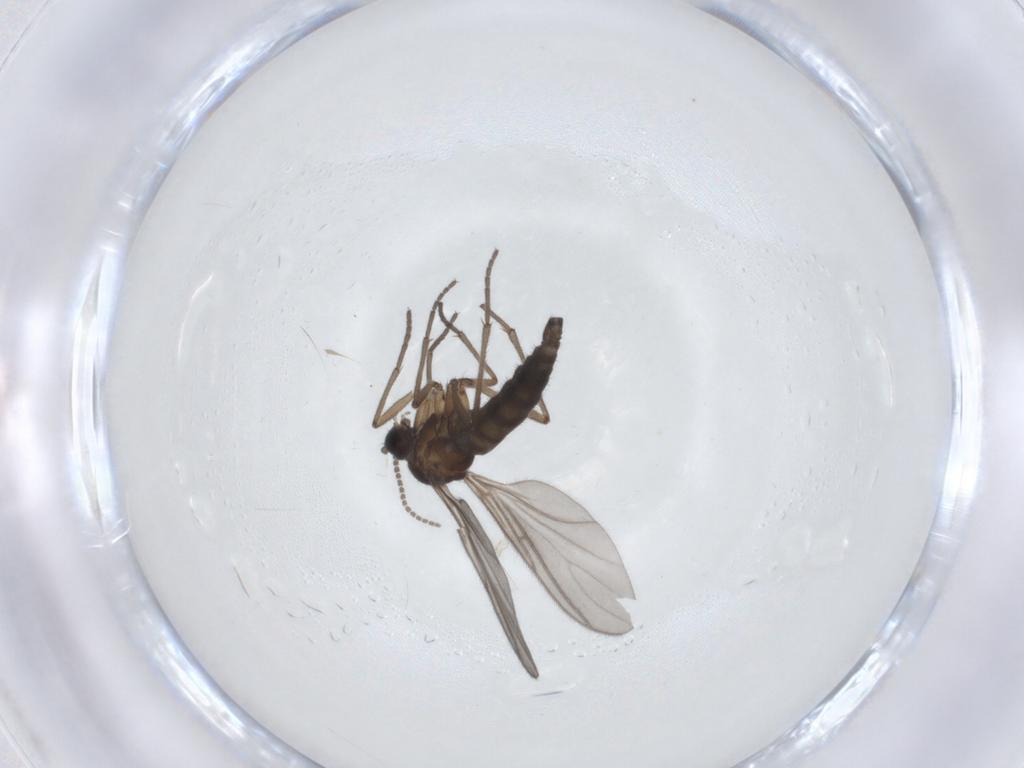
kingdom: Animalia
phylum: Arthropoda
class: Insecta
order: Diptera
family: Sciaridae
